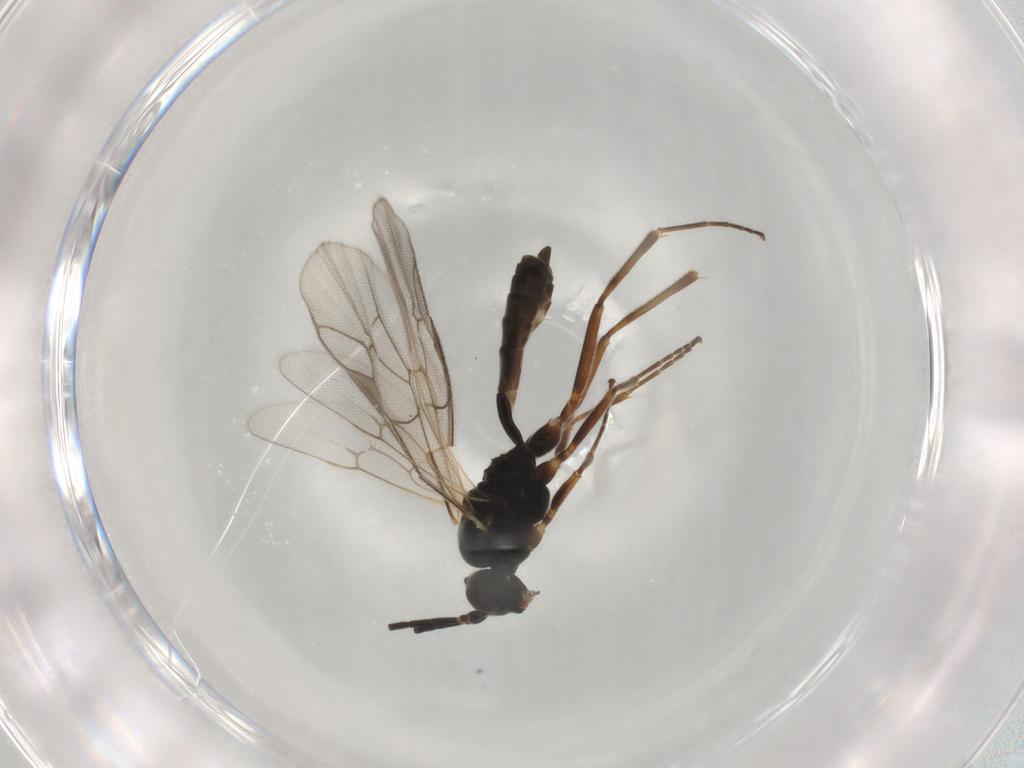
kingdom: Animalia
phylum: Arthropoda
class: Insecta
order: Hymenoptera
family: Ichneumonidae
